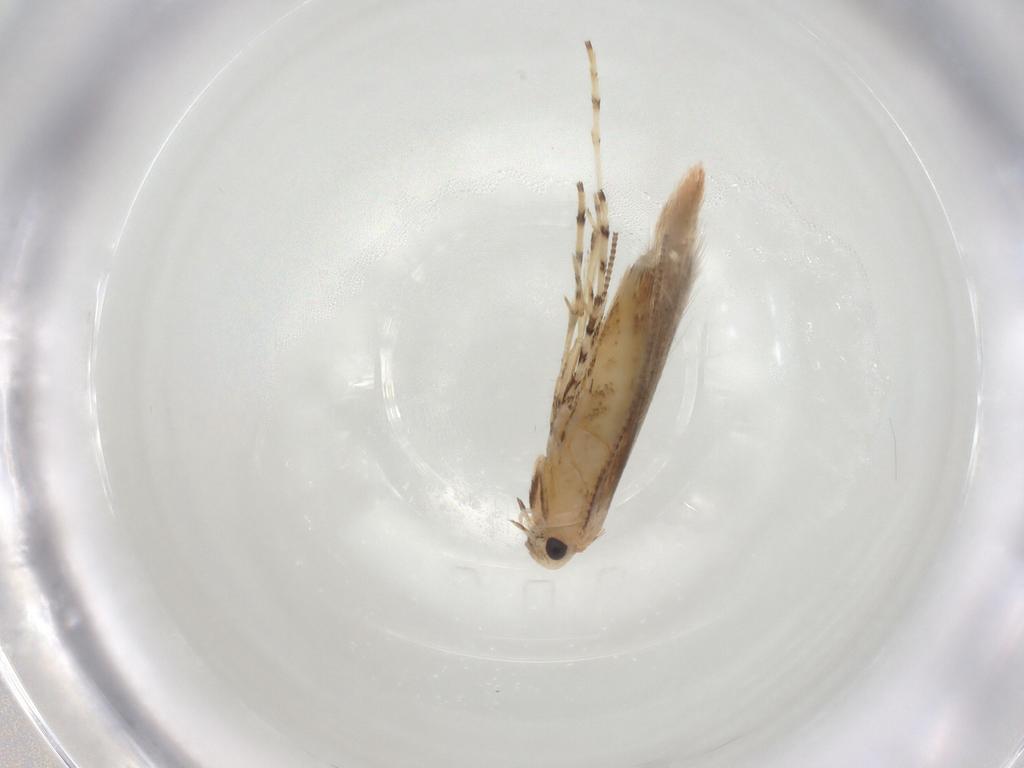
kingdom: Animalia
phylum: Arthropoda
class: Insecta
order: Lepidoptera
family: Gracillariidae
